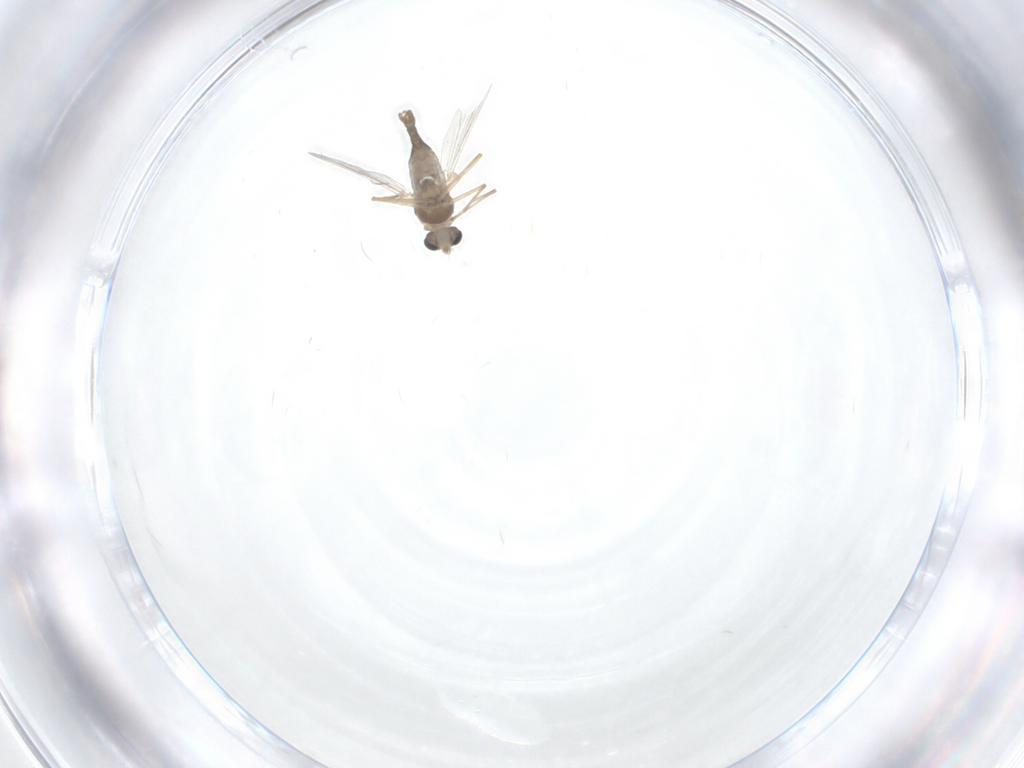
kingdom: Animalia
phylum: Arthropoda
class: Insecta
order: Diptera
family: Chironomidae
